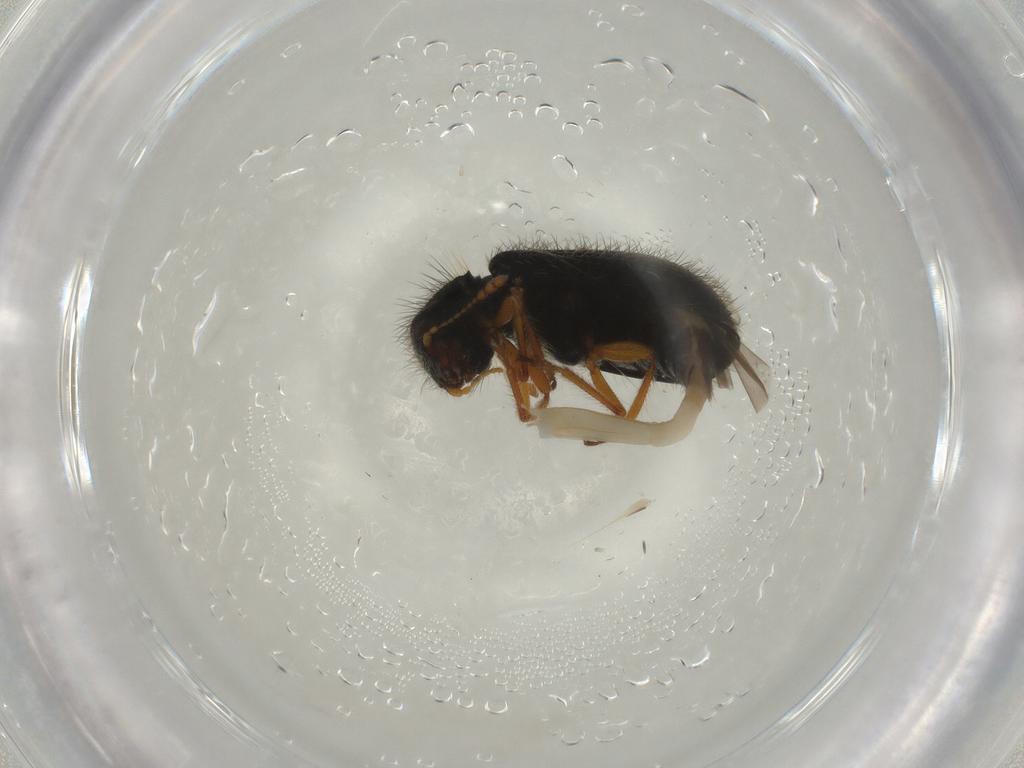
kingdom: Animalia
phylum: Arthropoda
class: Insecta
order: Coleoptera
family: Cleridae
